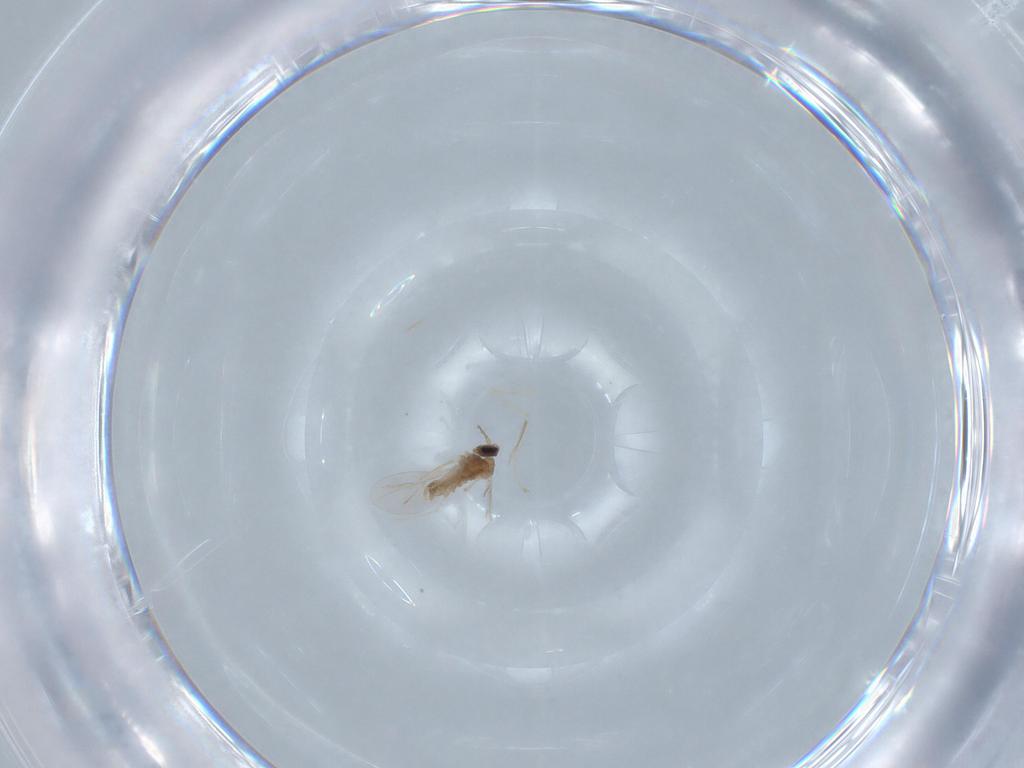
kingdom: Animalia
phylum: Arthropoda
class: Insecta
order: Diptera
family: Cecidomyiidae
